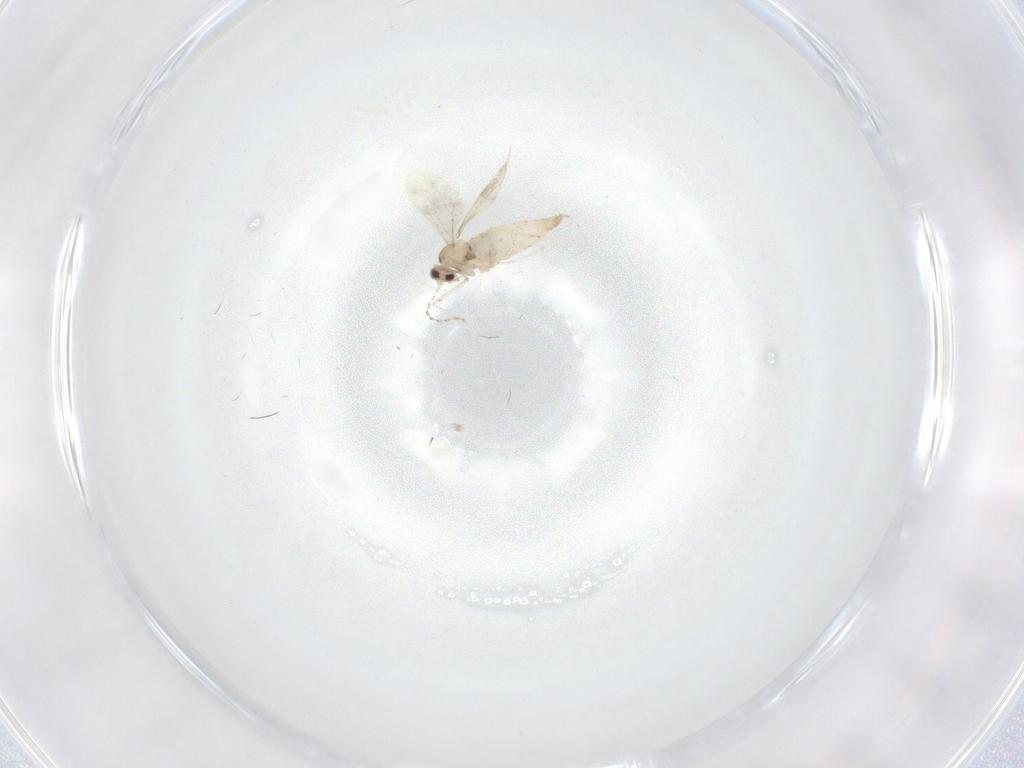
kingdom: Animalia
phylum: Arthropoda
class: Insecta
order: Diptera
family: Cecidomyiidae
